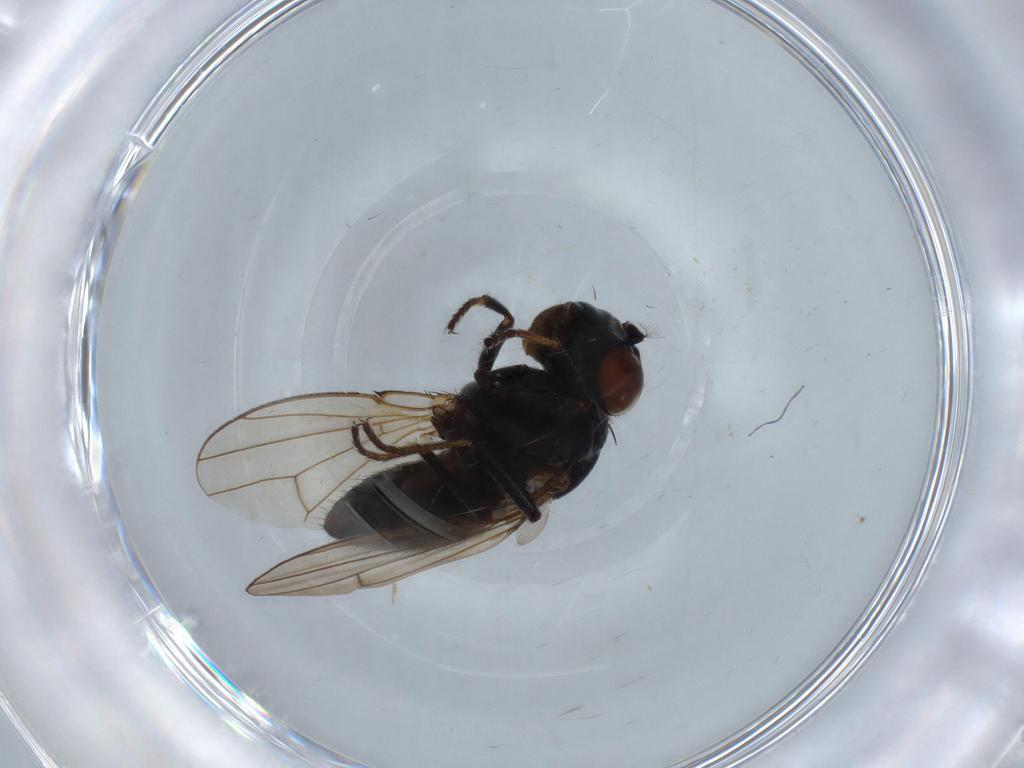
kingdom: Animalia
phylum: Arthropoda
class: Insecta
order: Diptera
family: Ephydridae
